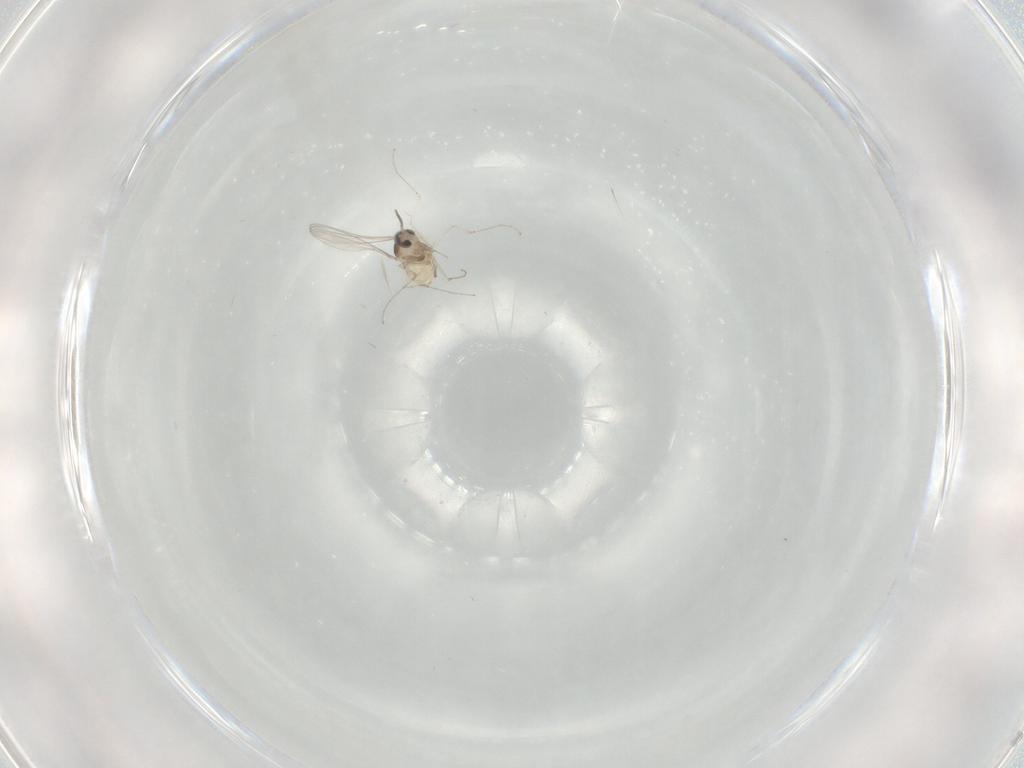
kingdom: Animalia
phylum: Arthropoda
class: Insecta
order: Diptera
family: Cecidomyiidae
